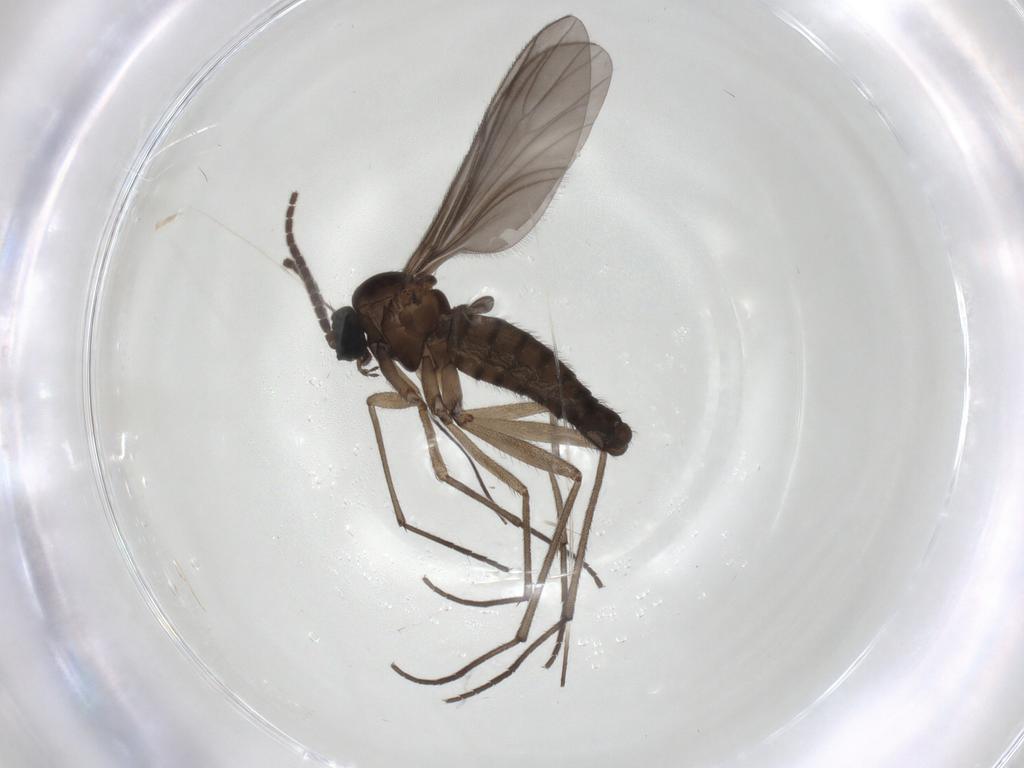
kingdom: Animalia
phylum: Arthropoda
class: Insecta
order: Diptera
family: Sciaridae
